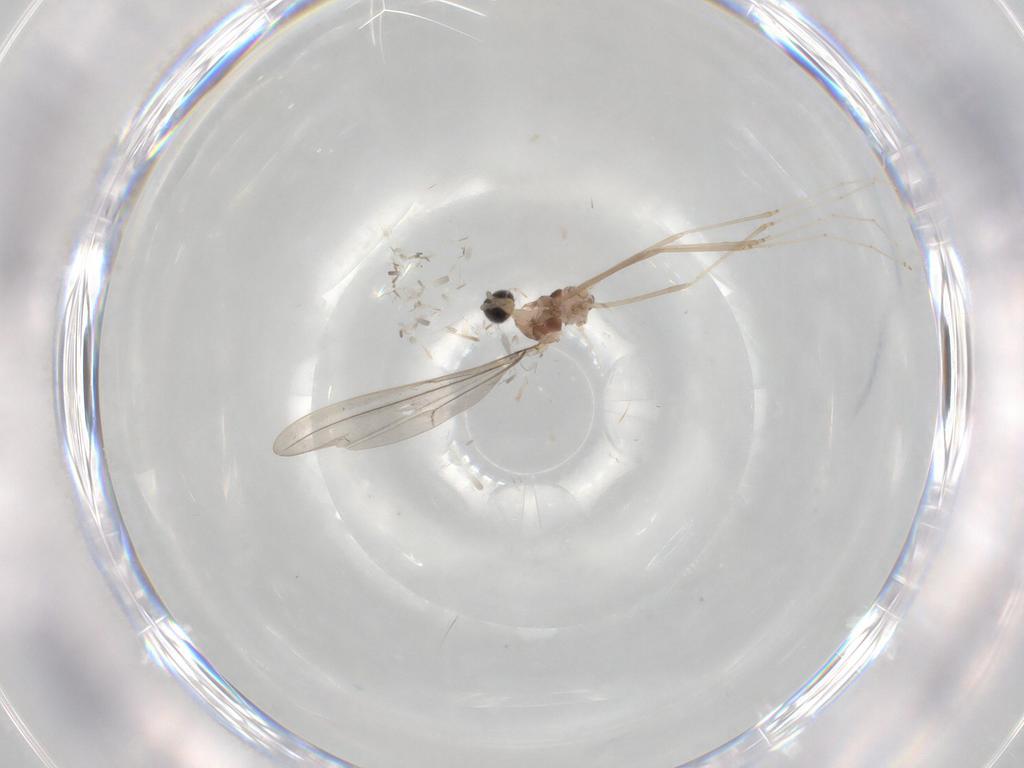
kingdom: Animalia
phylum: Arthropoda
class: Insecta
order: Diptera
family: Cecidomyiidae
